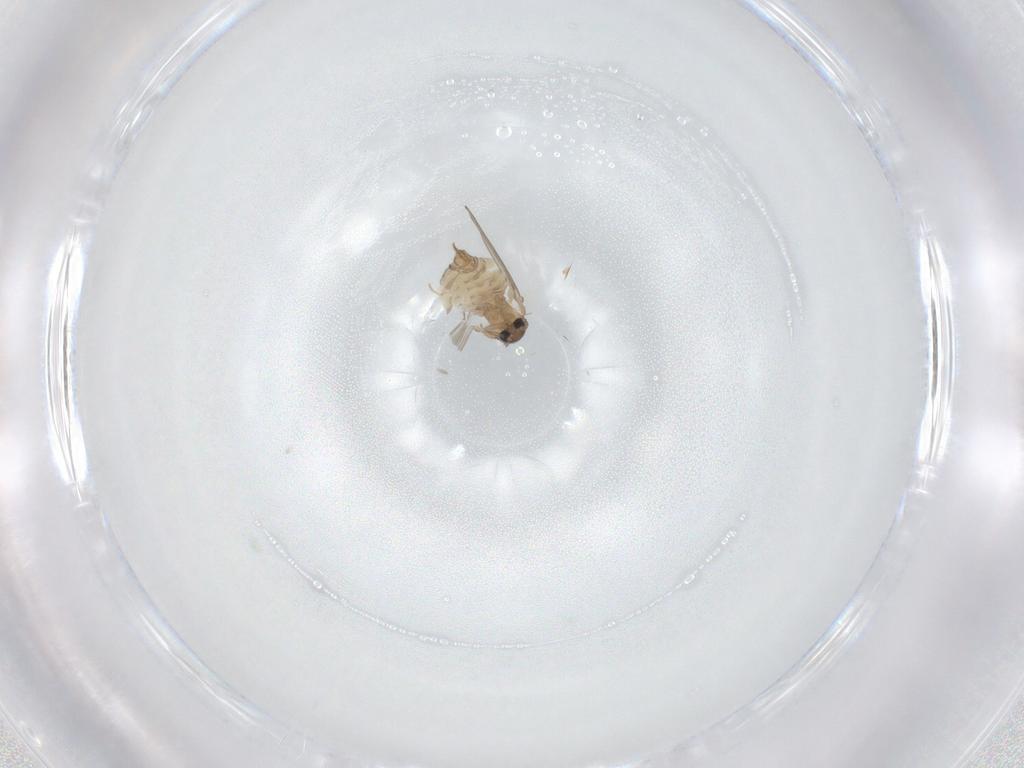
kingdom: Animalia
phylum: Arthropoda
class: Insecta
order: Diptera
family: Psychodidae
